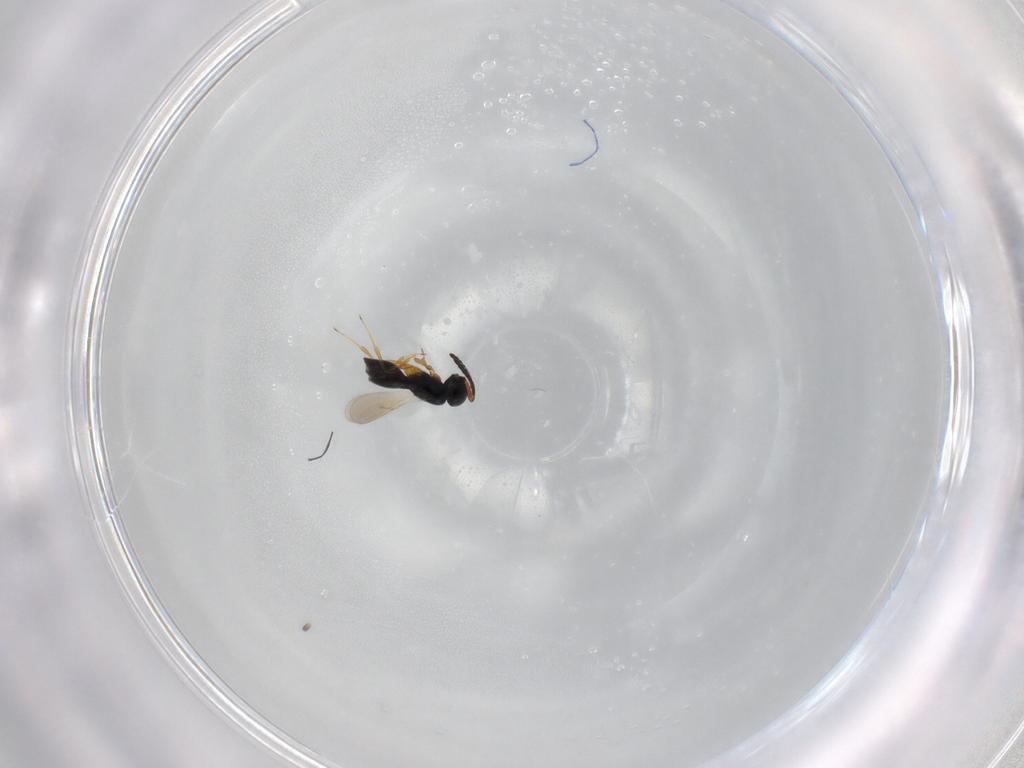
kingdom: Animalia
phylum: Arthropoda
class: Insecta
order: Hymenoptera
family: Scelionidae
